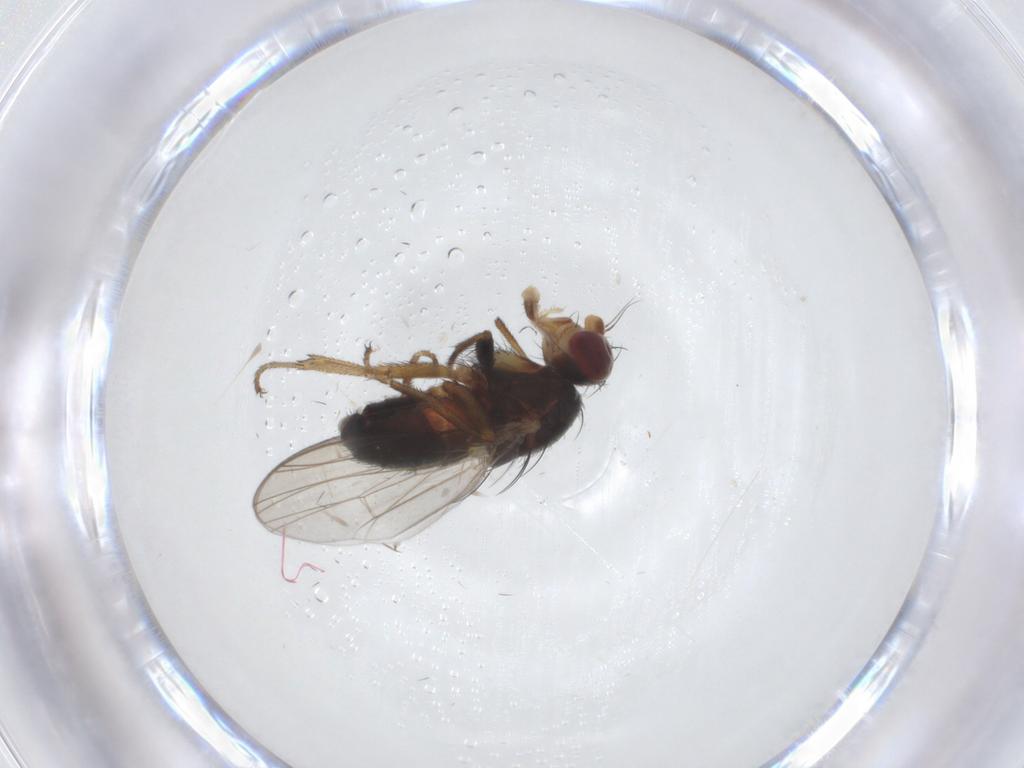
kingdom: Animalia
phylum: Arthropoda
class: Insecta
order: Diptera
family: Heleomyzidae
